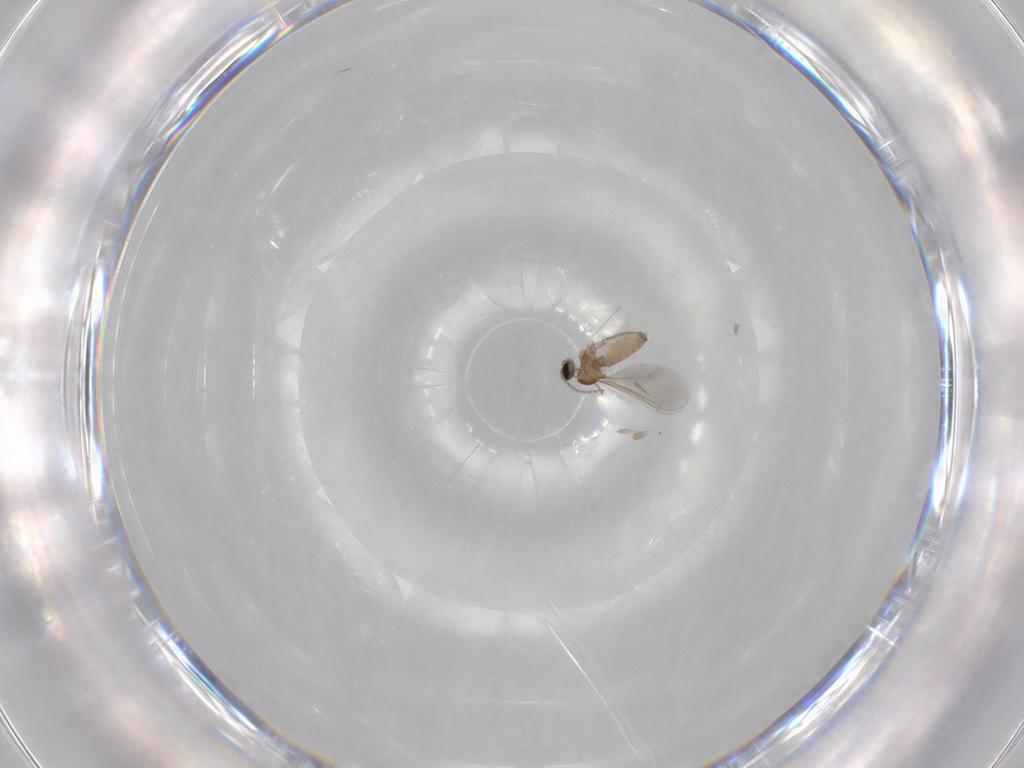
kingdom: Animalia
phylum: Arthropoda
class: Insecta
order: Diptera
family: Cecidomyiidae
